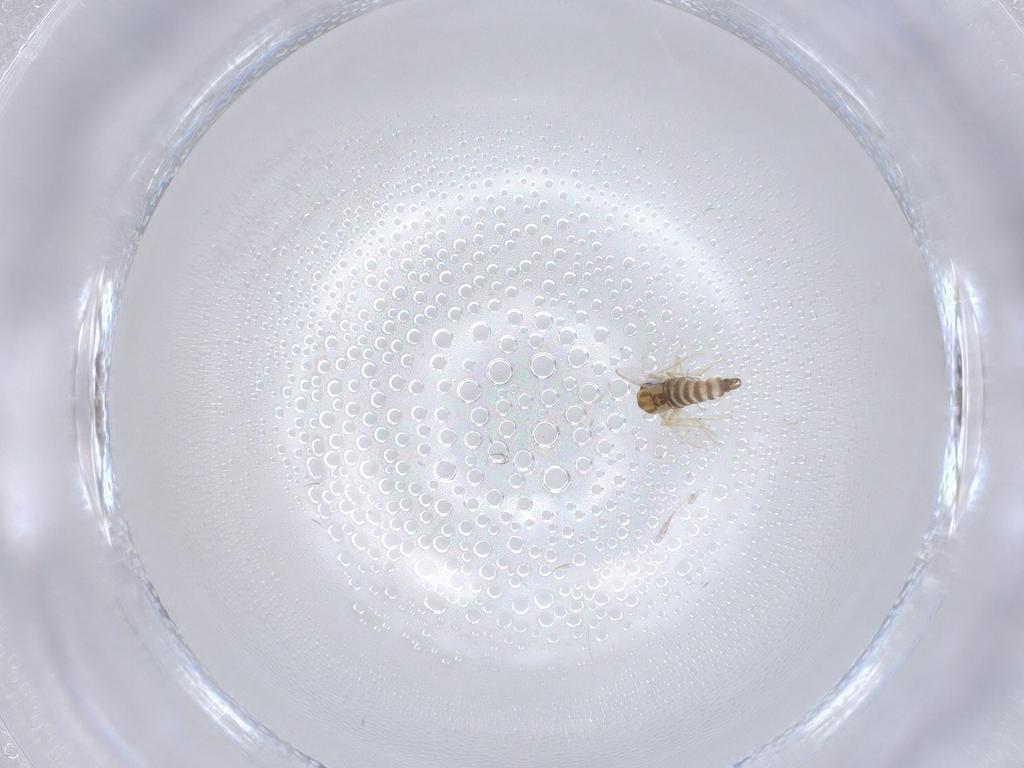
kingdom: Animalia
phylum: Arthropoda
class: Insecta
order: Diptera
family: Chironomidae
